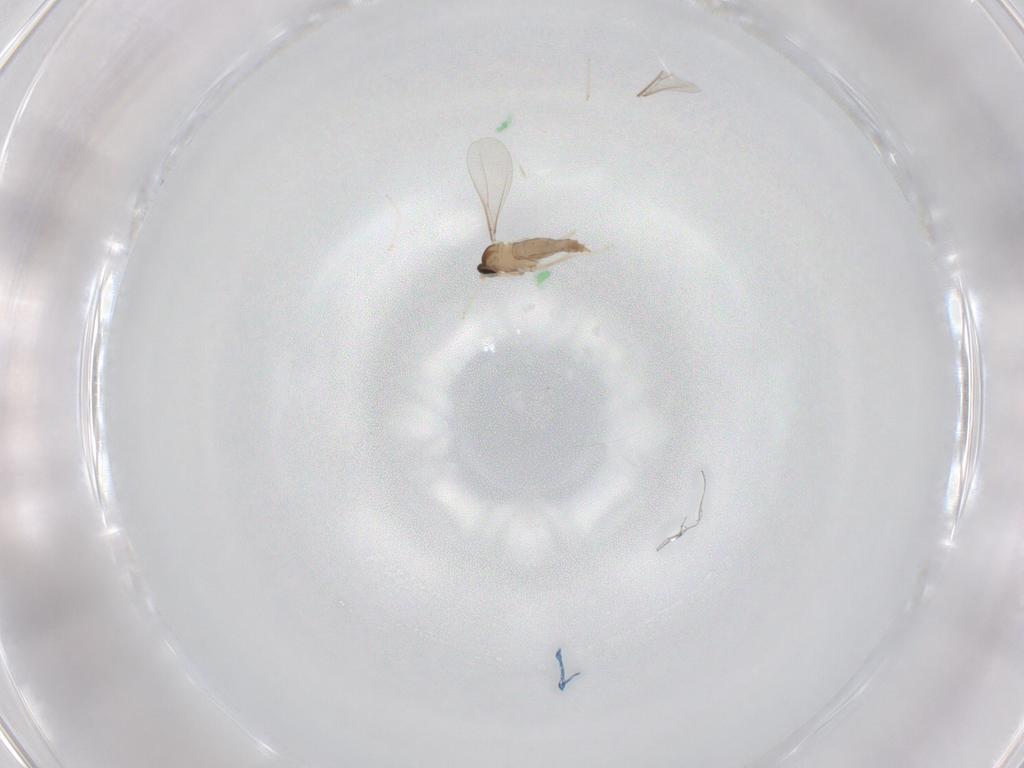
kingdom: Animalia
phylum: Arthropoda
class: Insecta
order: Diptera
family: Cecidomyiidae
